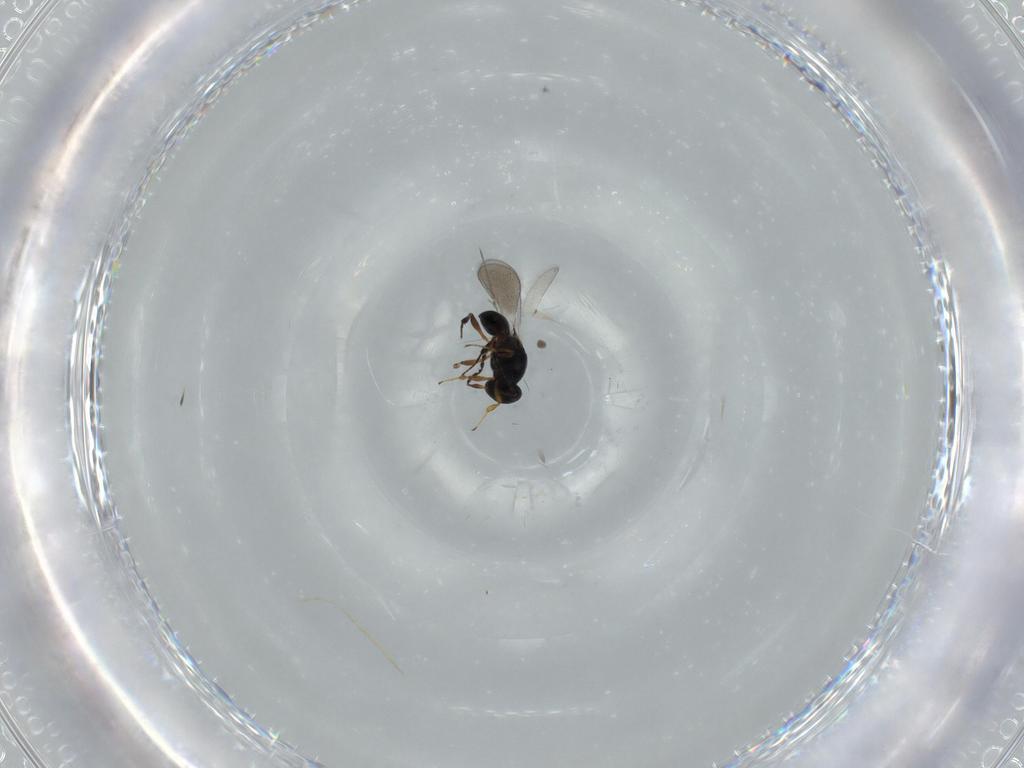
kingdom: Animalia
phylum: Arthropoda
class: Insecta
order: Hymenoptera
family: Platygastridae
